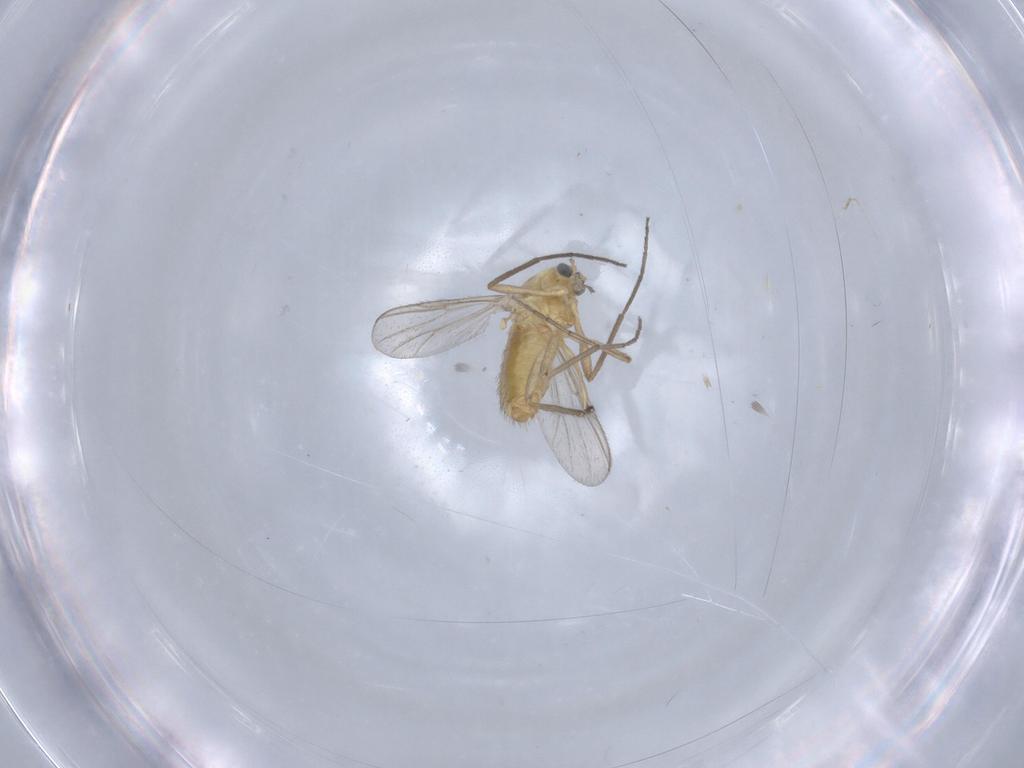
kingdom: Animalia
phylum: Arthropoda
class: Insecta
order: Diptera
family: Chironomidae
